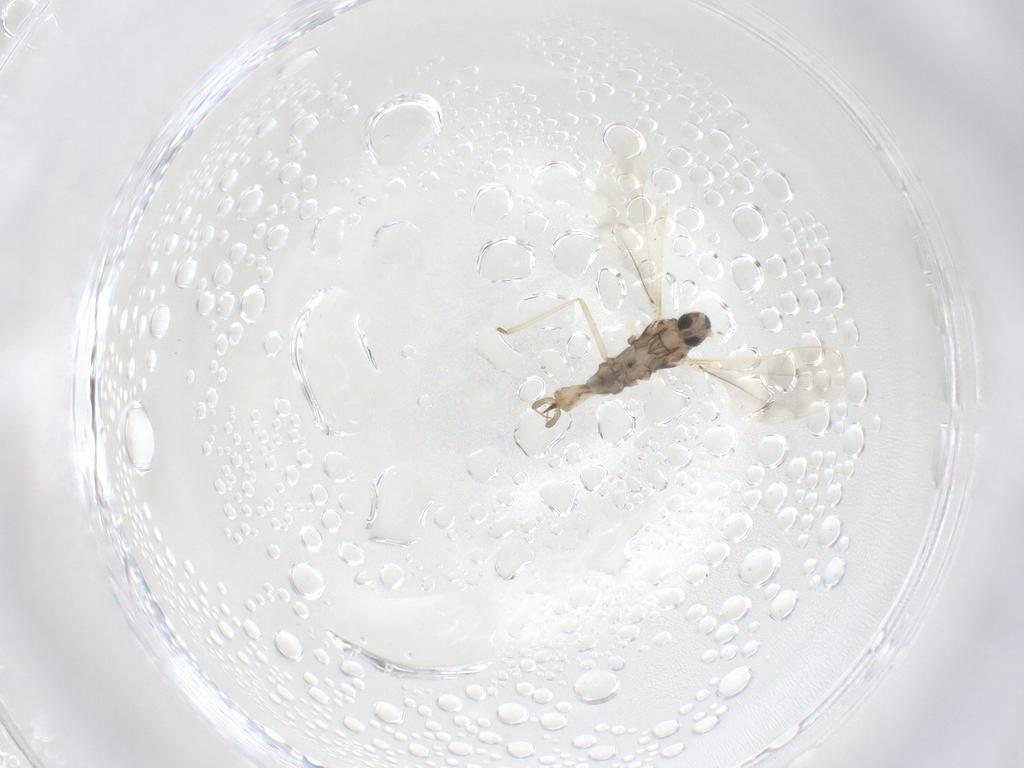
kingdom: Animalia
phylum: Arthropoda
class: Insecta
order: Diptera
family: Cecidomyiidae
